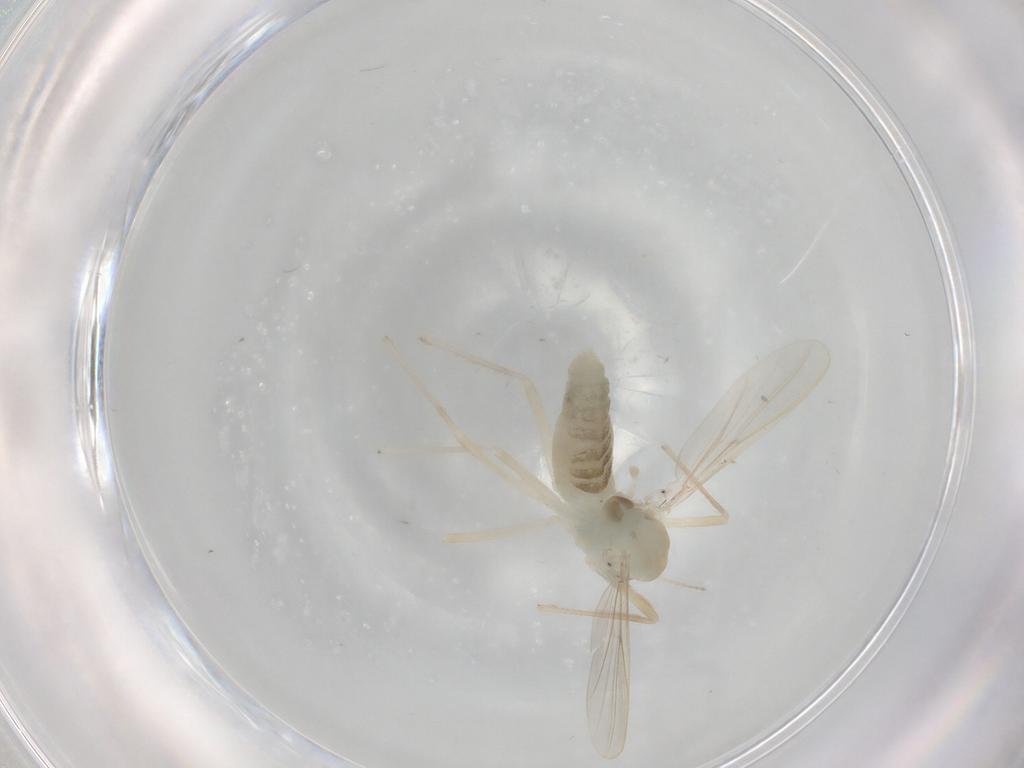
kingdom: Animalia
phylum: Arthropoda
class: Insecta
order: Diptera
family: Chironomidae
